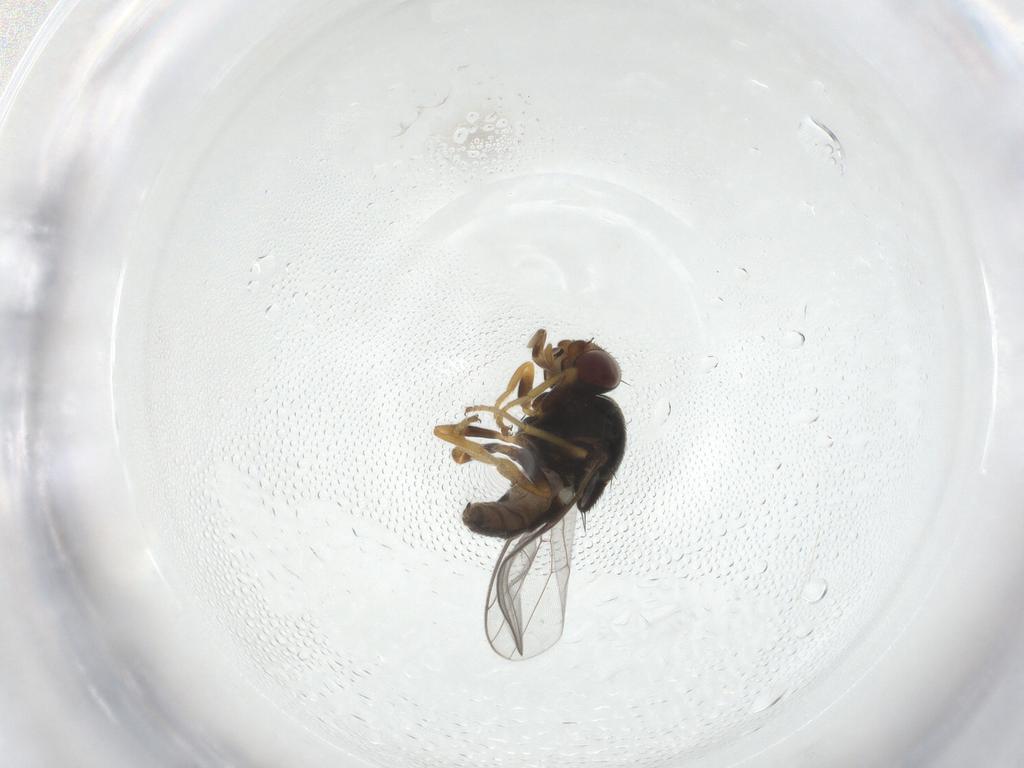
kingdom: Animalia
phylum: Arthropoda
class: Insecta
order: Diptera
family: Chloropidae
